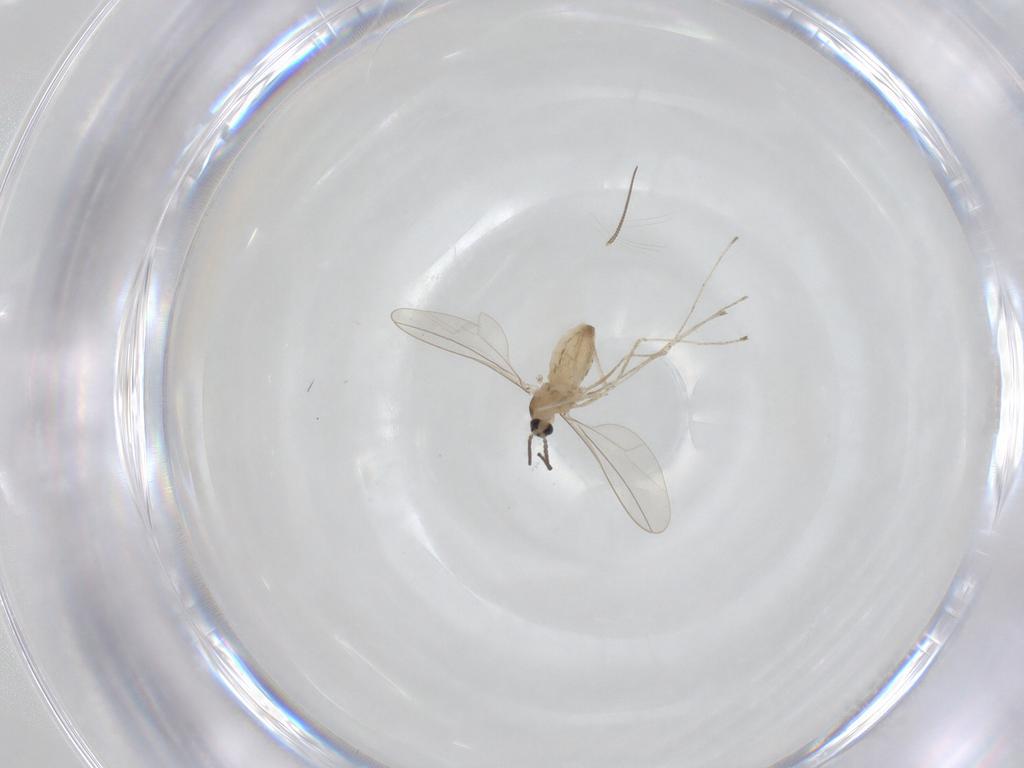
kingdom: Animalia
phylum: Arthropoda
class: Insecta
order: Diptera
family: Cecidomyiidae
